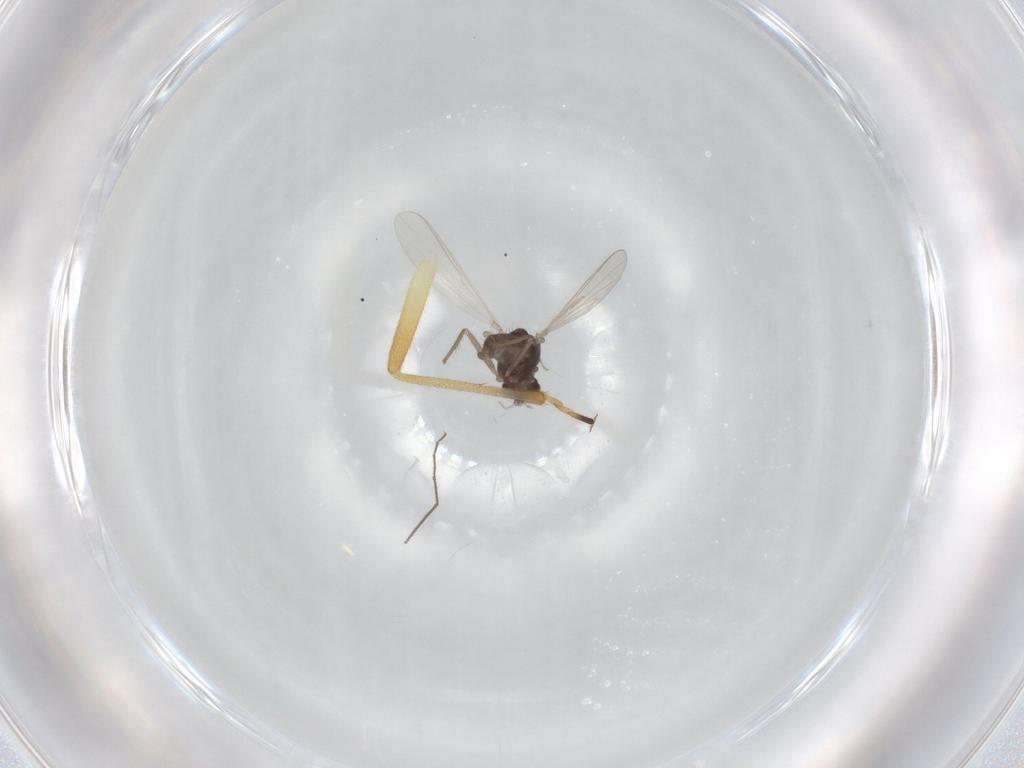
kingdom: Animalia
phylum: Arthropoda
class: Insecta
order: Diptera
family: Chironomidae
